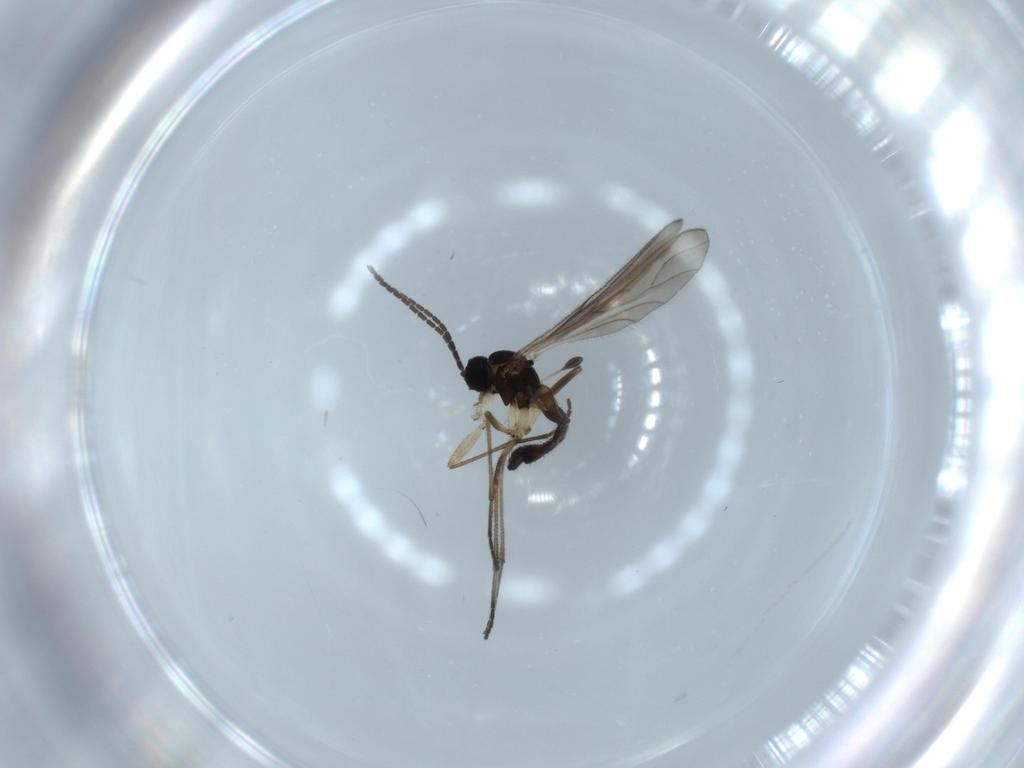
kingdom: Animalia
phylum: Arthropoda
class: Insecta
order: Diptera
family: Sciaridae
